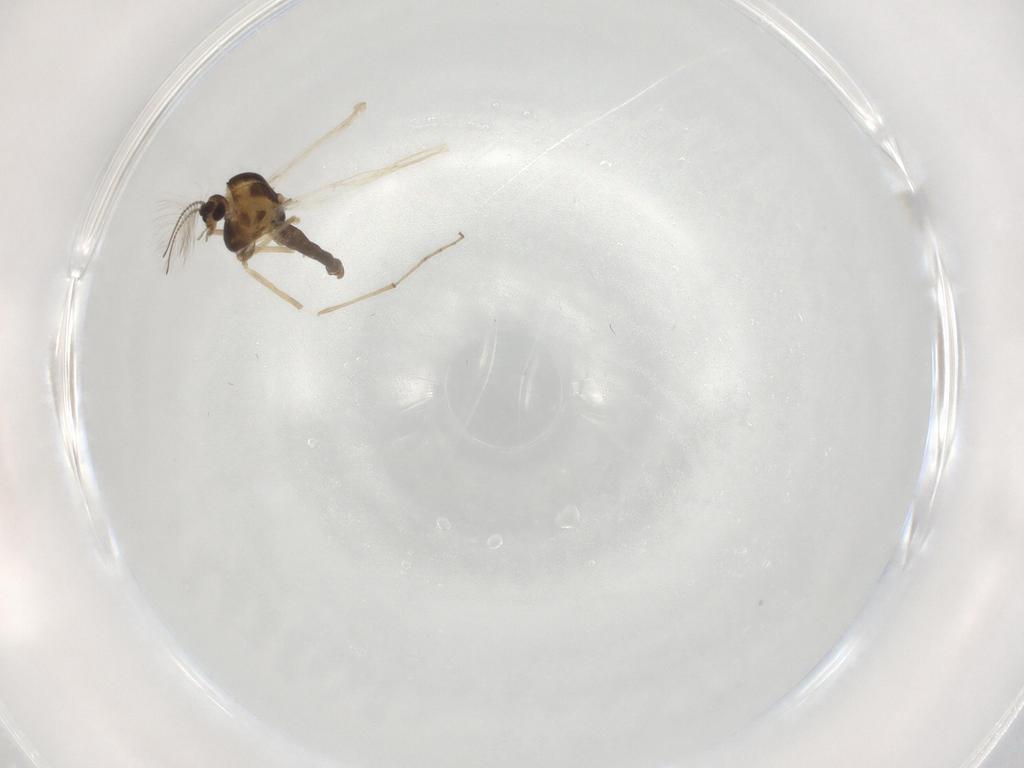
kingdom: Animalia
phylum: Arthropoda
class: Insecta
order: Diptera
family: Chironomidae
